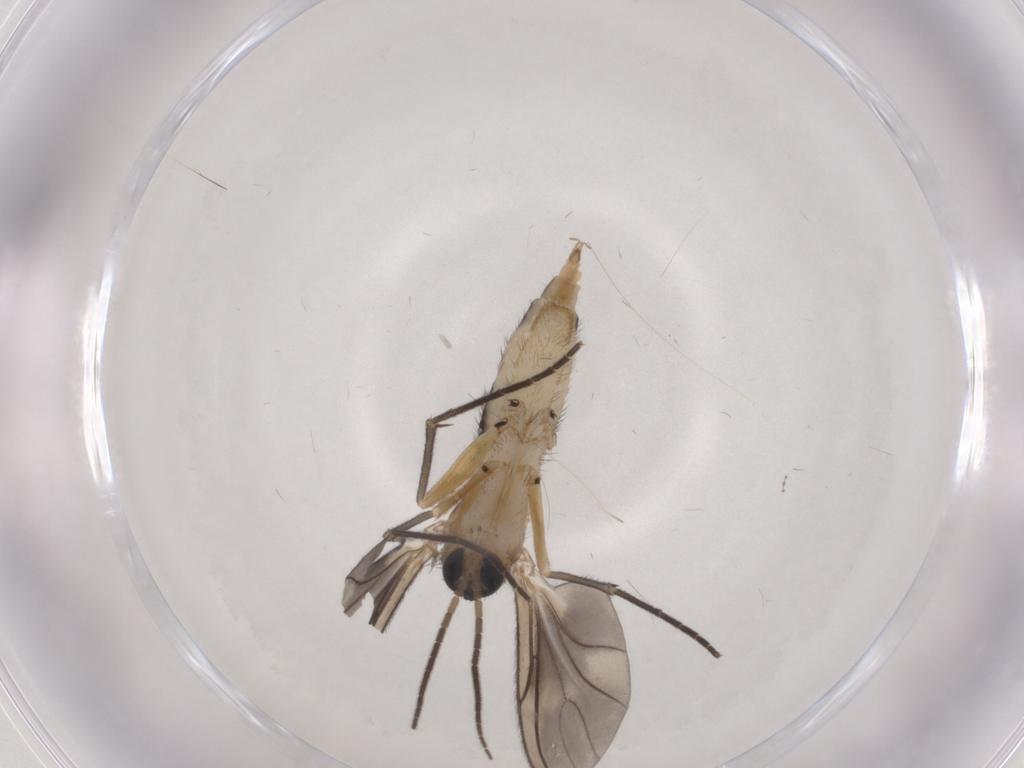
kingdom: Animalia
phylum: Arthropoda
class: Insecta
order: Diptera
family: Sciaridae
